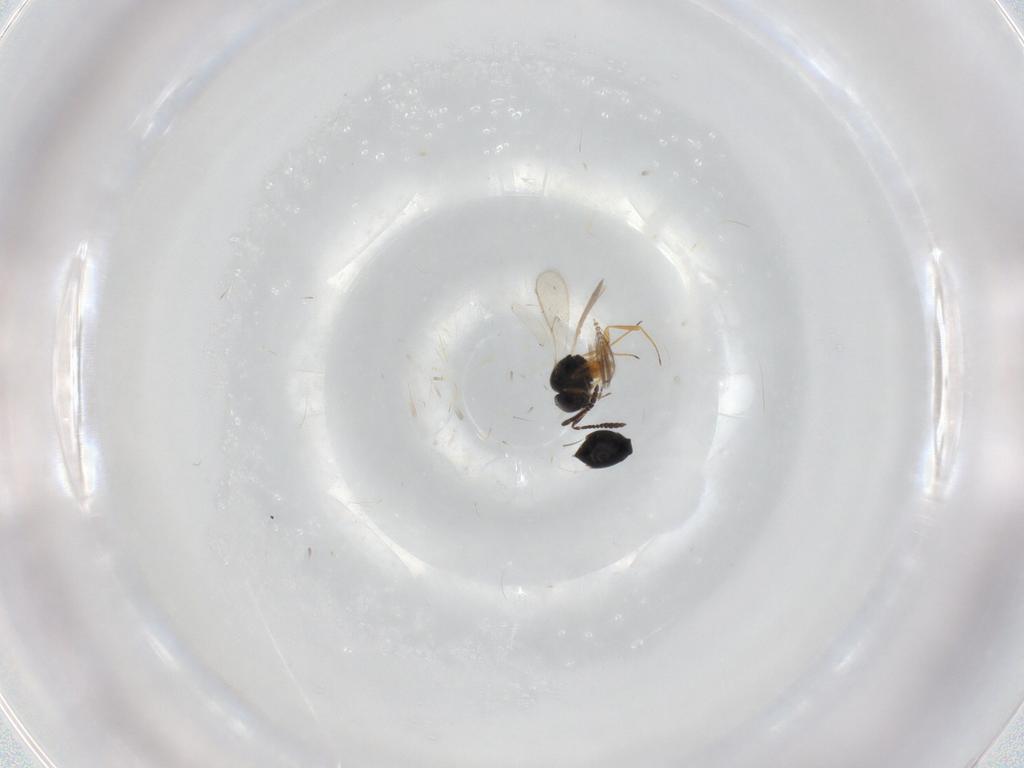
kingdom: Animalia
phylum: Arthropoda
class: Insecta
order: Hymenoptera
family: Scelionidae
